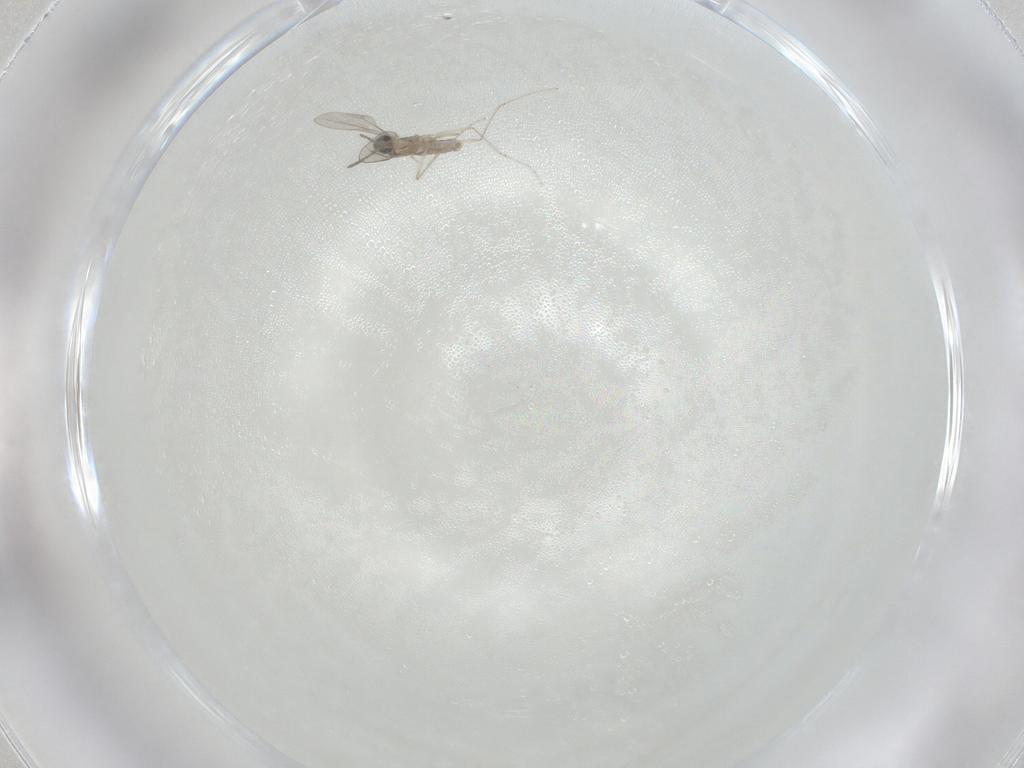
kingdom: Animalia
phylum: Arthropoda
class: Insecta
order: Diptera
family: Cecidomyiidae
